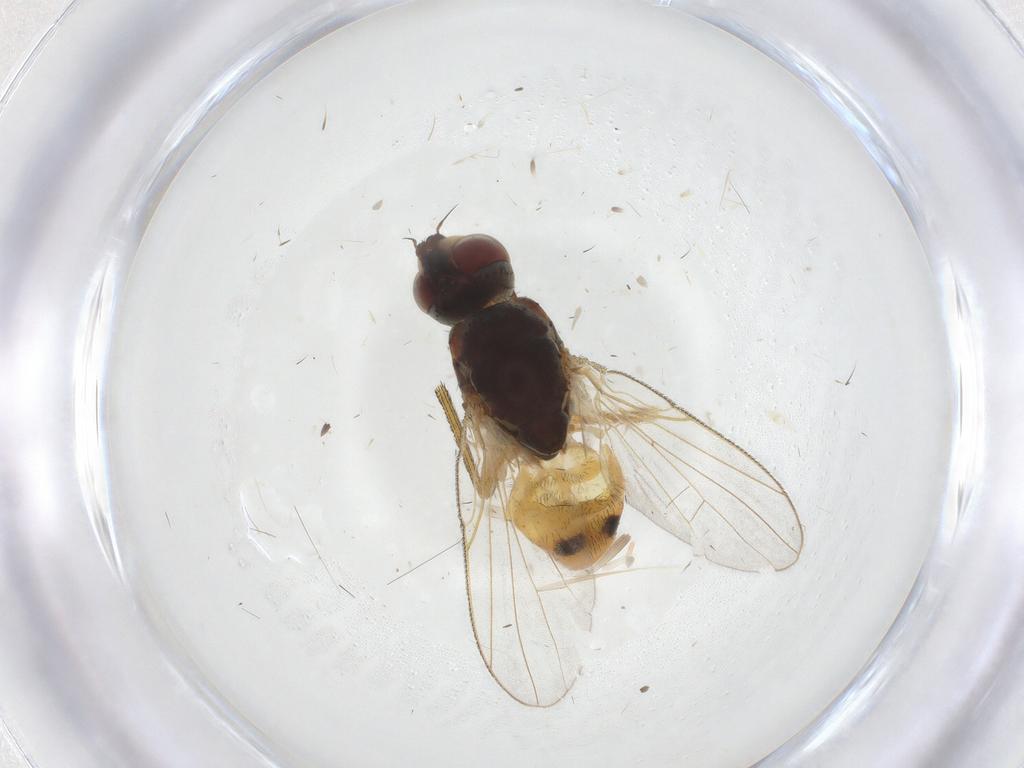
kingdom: Animalia
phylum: Arthropoda
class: Insecta
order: Diptera
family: Muscidae
